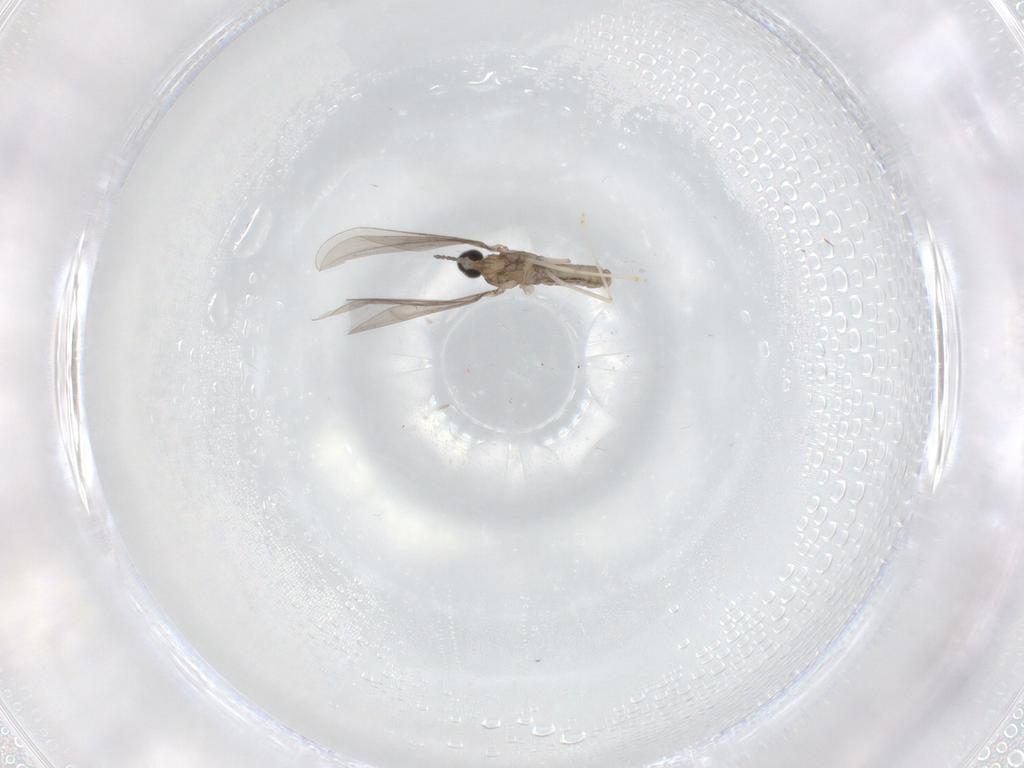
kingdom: Animalia
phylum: Arthropoda
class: Insecta
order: Diptera
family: Cecidomyiidae
